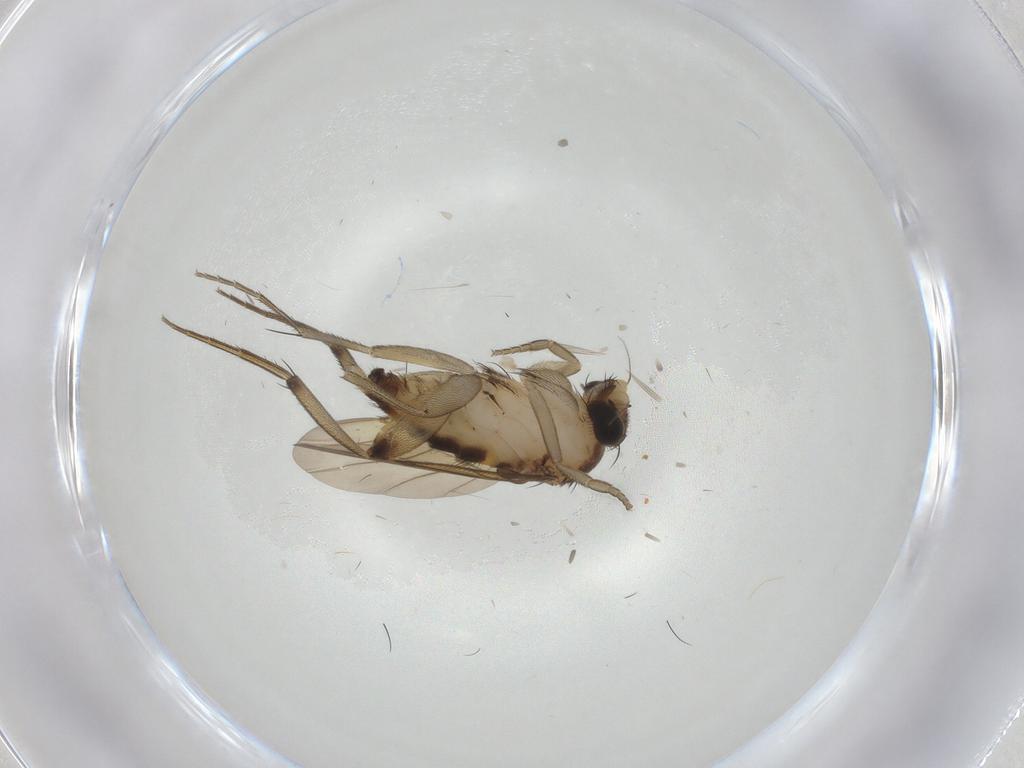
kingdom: Animalia
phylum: Arthropoda
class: Insecta
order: Diptera
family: Phoridae
